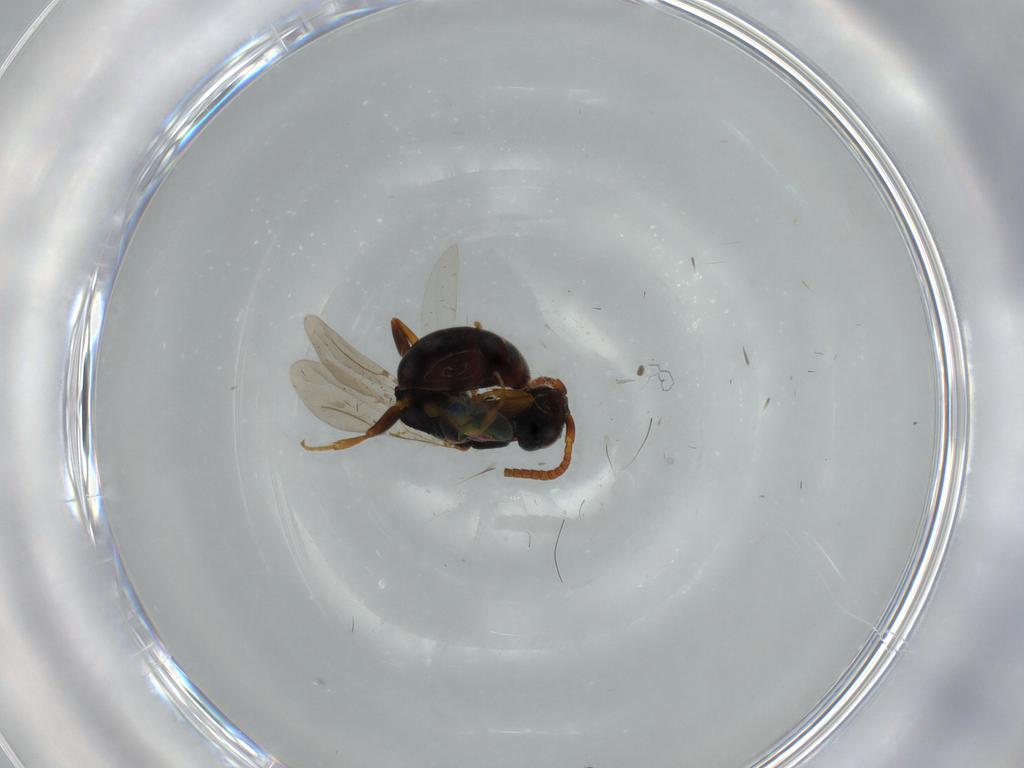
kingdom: Animalia
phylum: Arthropoda
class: Insecta
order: Hymenoptera
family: Bethylidae
